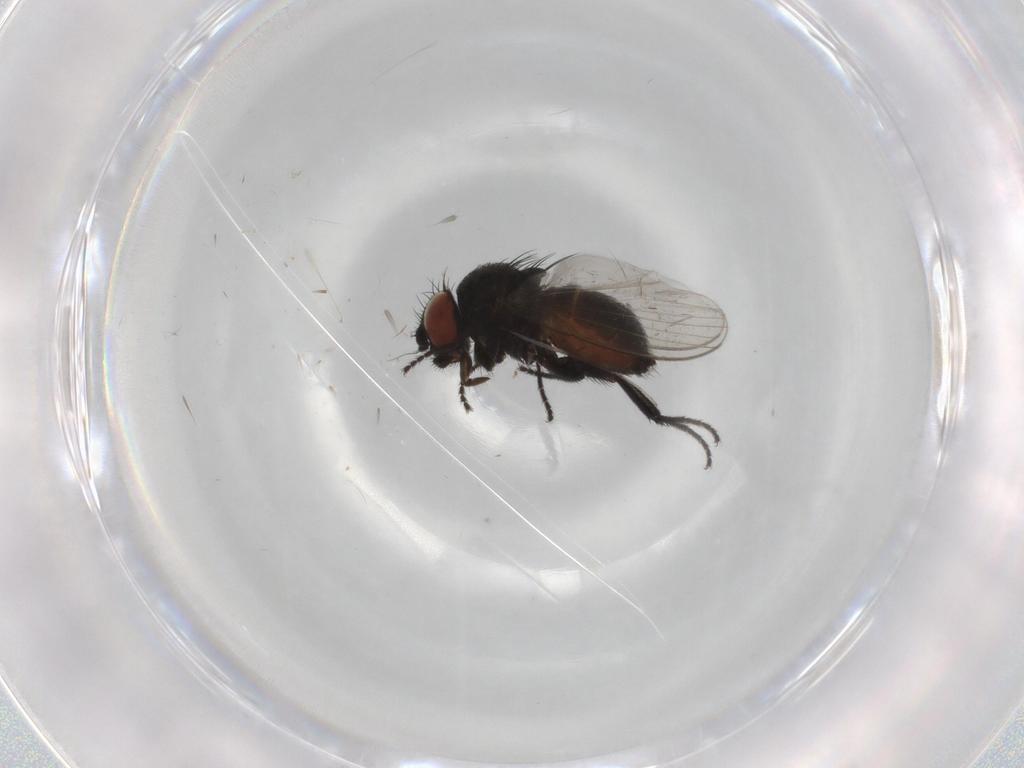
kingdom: Animalia
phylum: Arthropoda
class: Insecta
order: Diptera
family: Milichiidae
